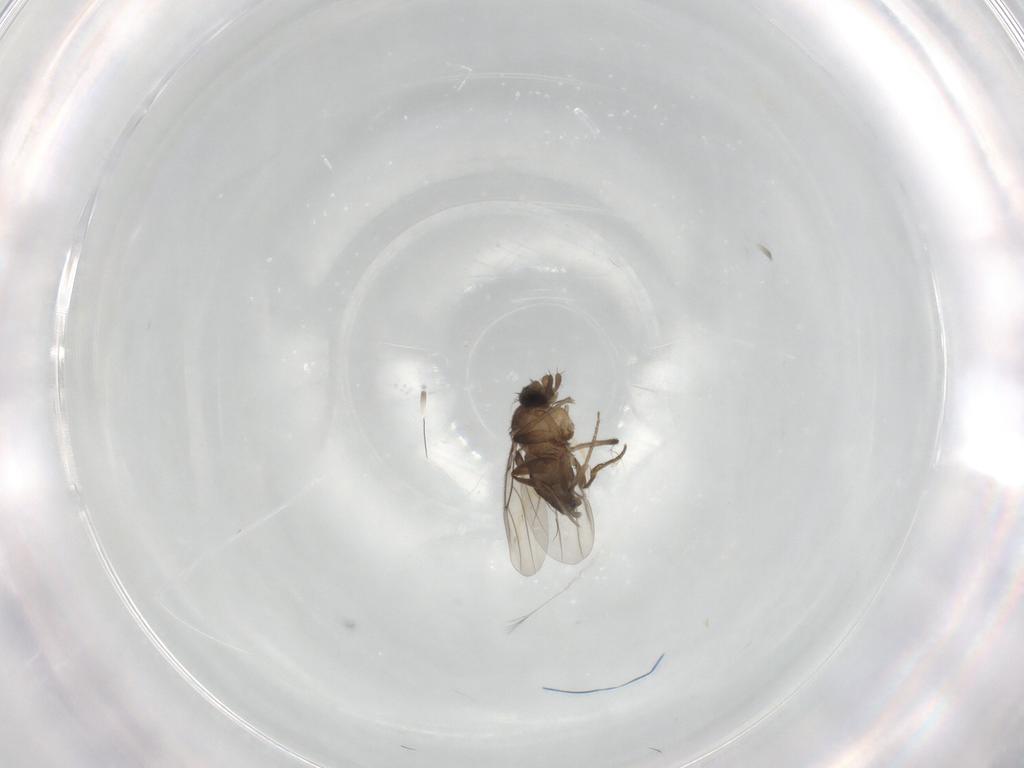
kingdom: Animalia
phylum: Arthropoda
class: Insecta
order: Diptera
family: Phoridae
